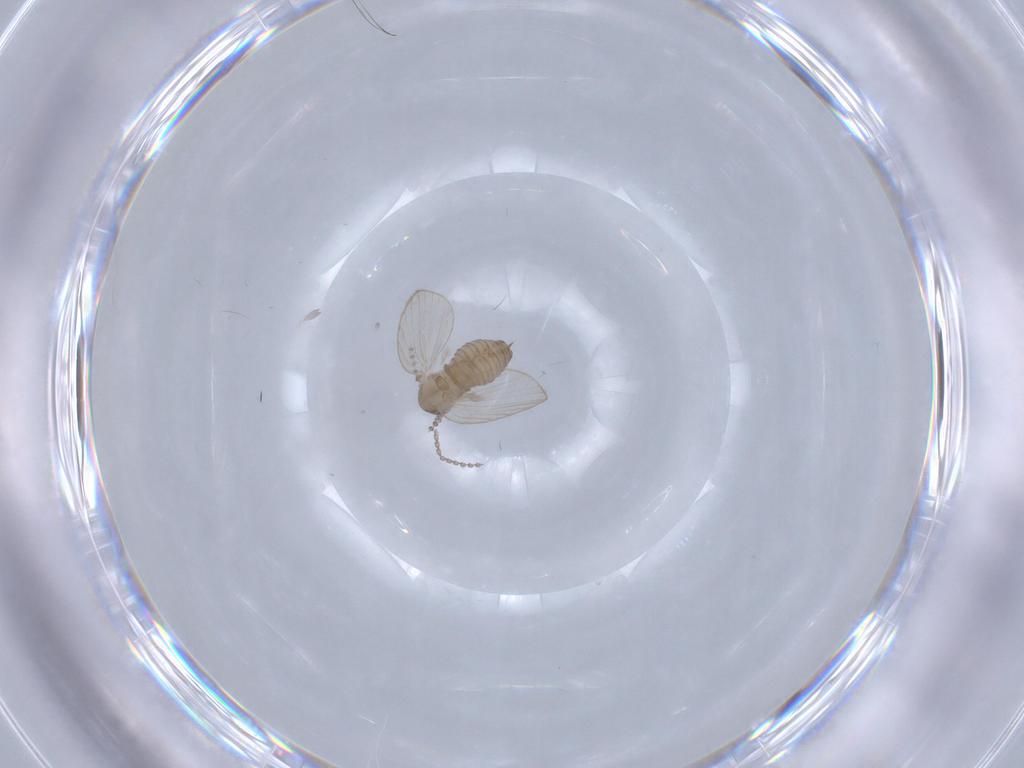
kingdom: Animalia
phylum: Arthropoda
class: Insecta
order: Diptera
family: Psychodidae
